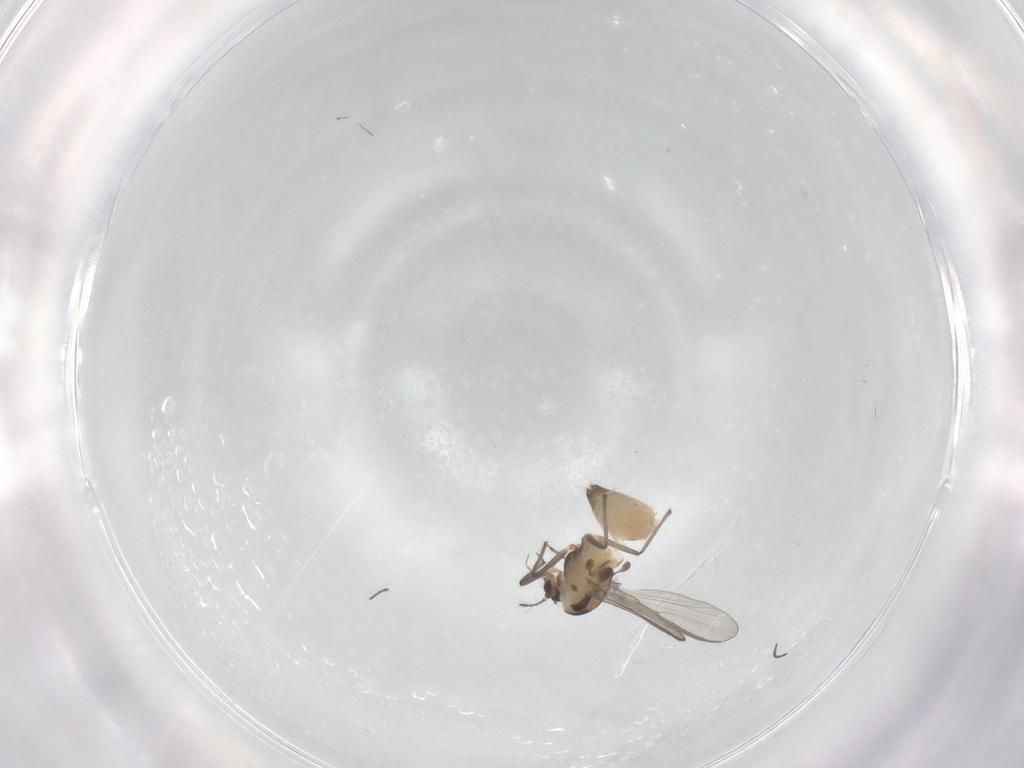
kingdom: Animalia
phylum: Arthropoda
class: Insecta
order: Diptera
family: Chironomidae
